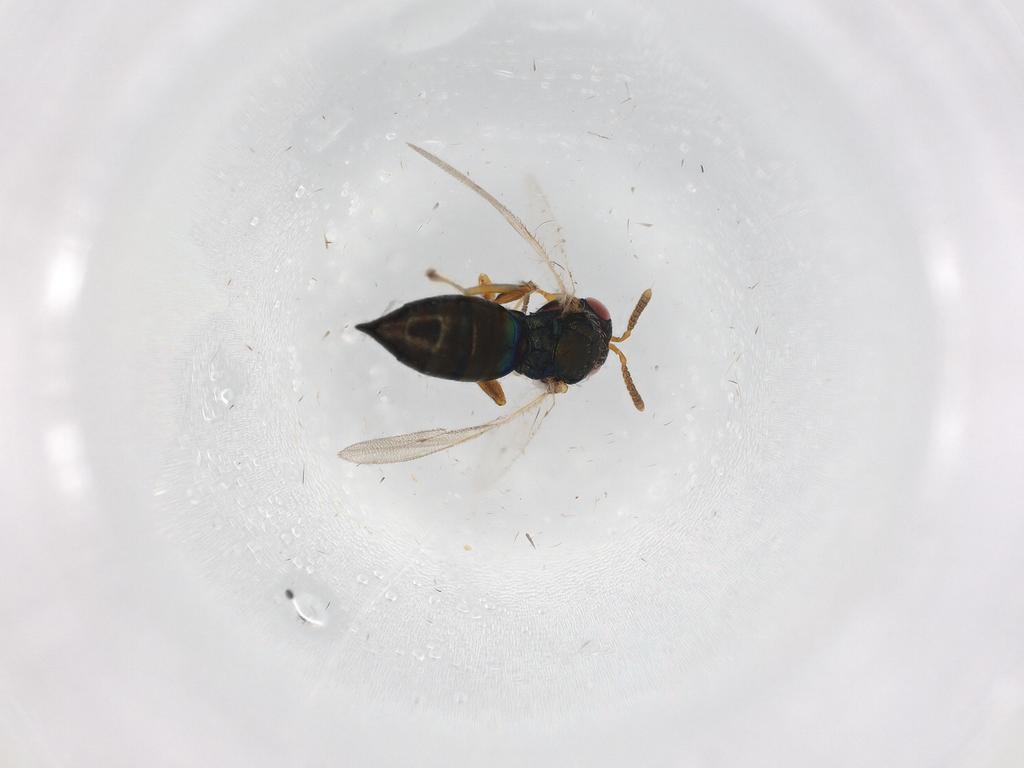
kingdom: Animalia
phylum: Arthropoda
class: Insecta
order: Hymenoptera
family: Pteromalidae
